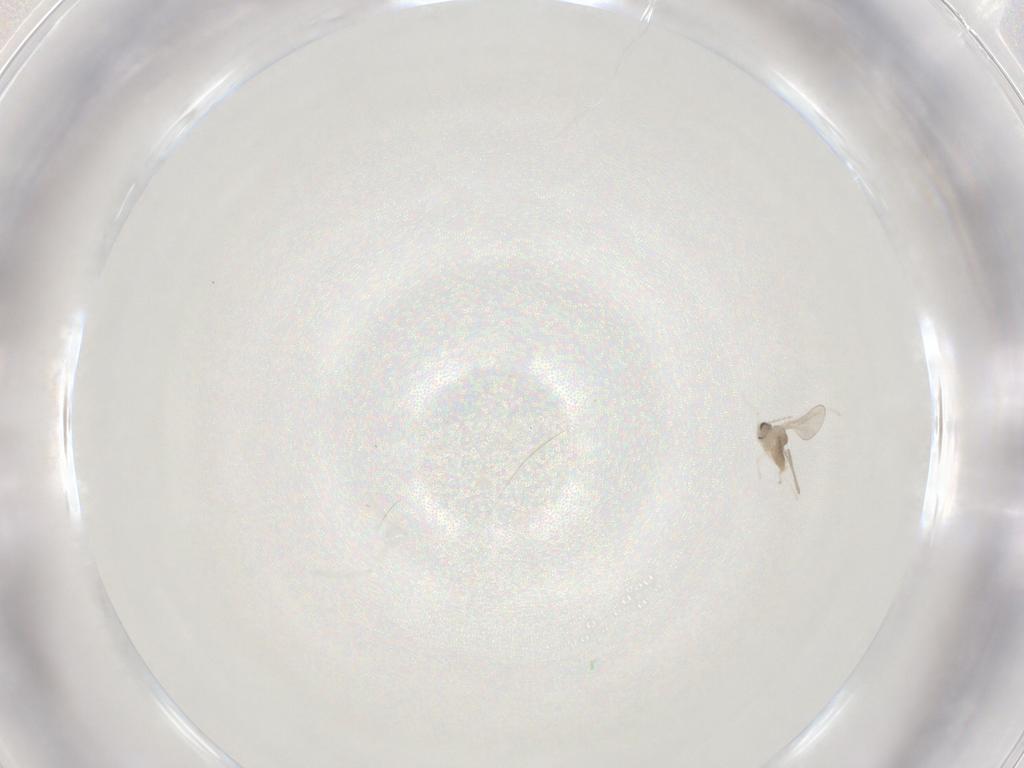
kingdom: Animalia
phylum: Arthropoda
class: Insecta
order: Diptera
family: Cecidomyiidae
